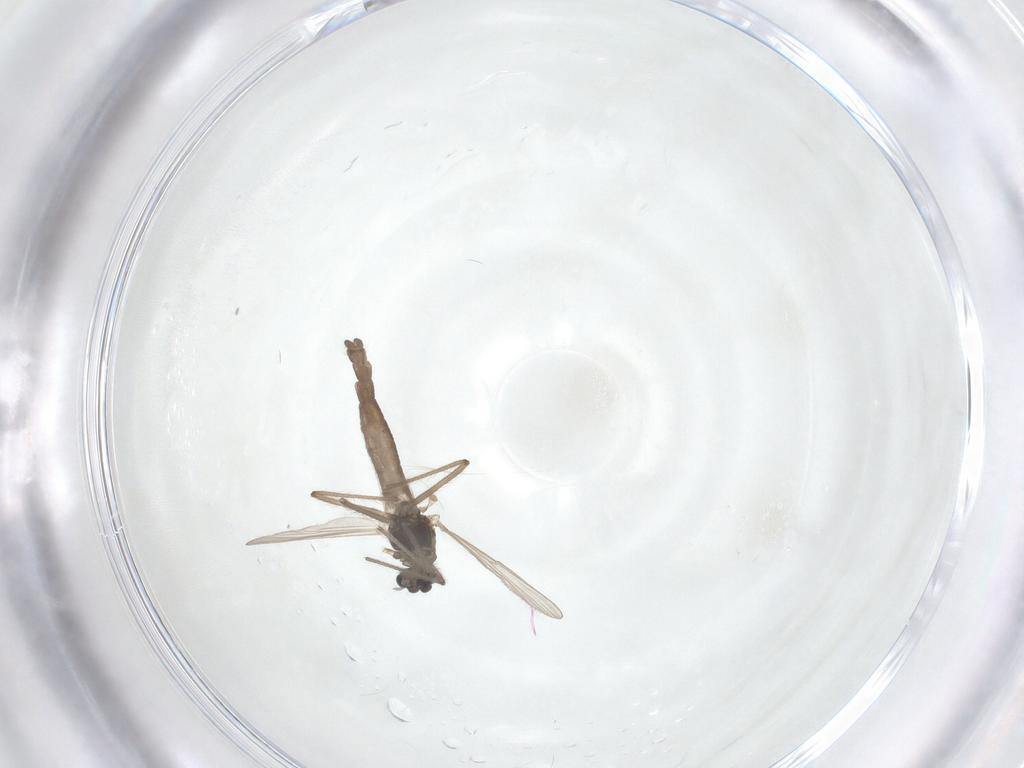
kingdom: Animalia
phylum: Arthropoda
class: Insecta
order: Diptera
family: Chironomidae
